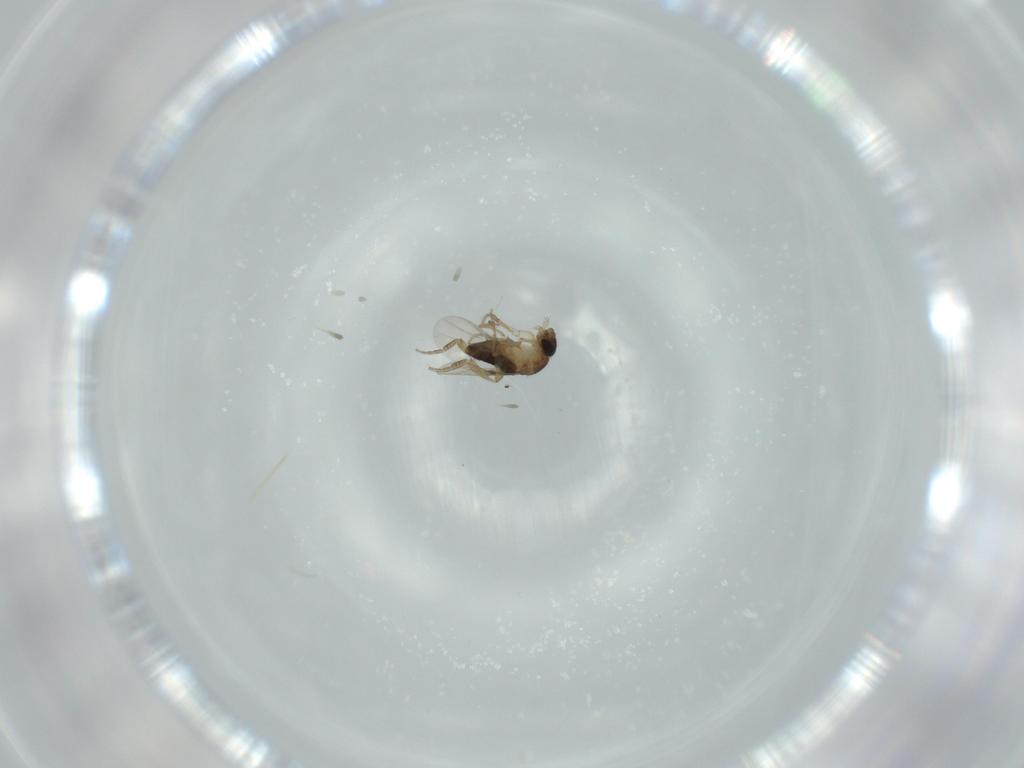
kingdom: Animalia
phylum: Arthropoda
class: Insecta
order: Diptera
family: Phoridae
